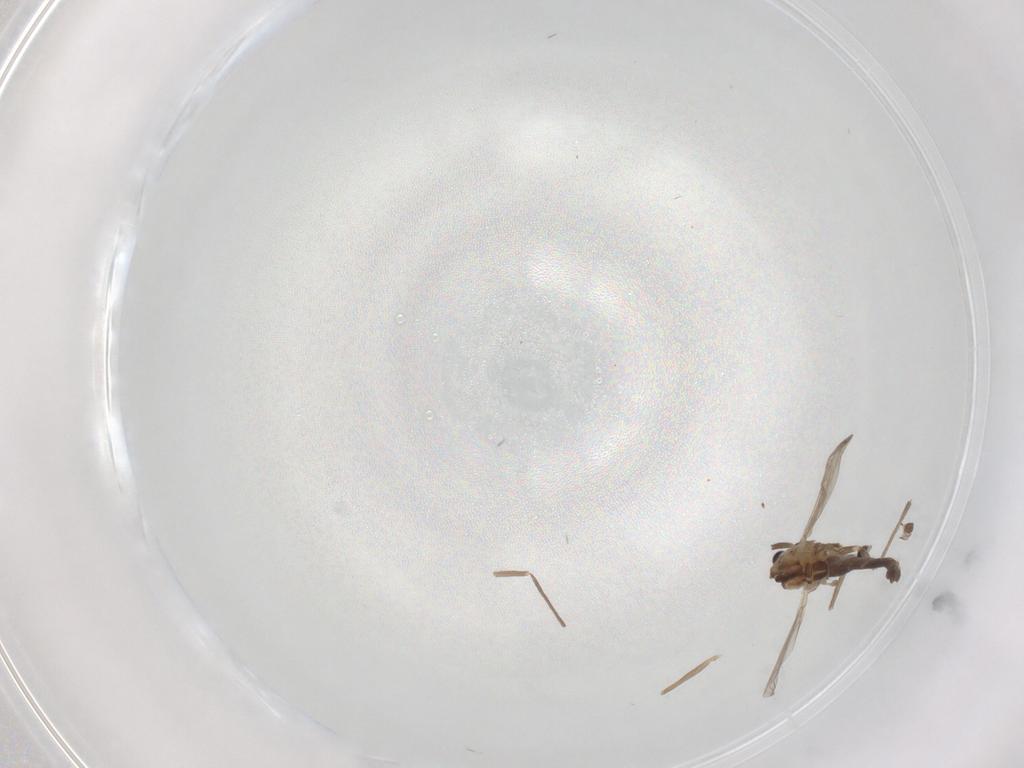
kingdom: Animalia
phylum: Arthropoda
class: Insecta
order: Diptera
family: Chironomidae
